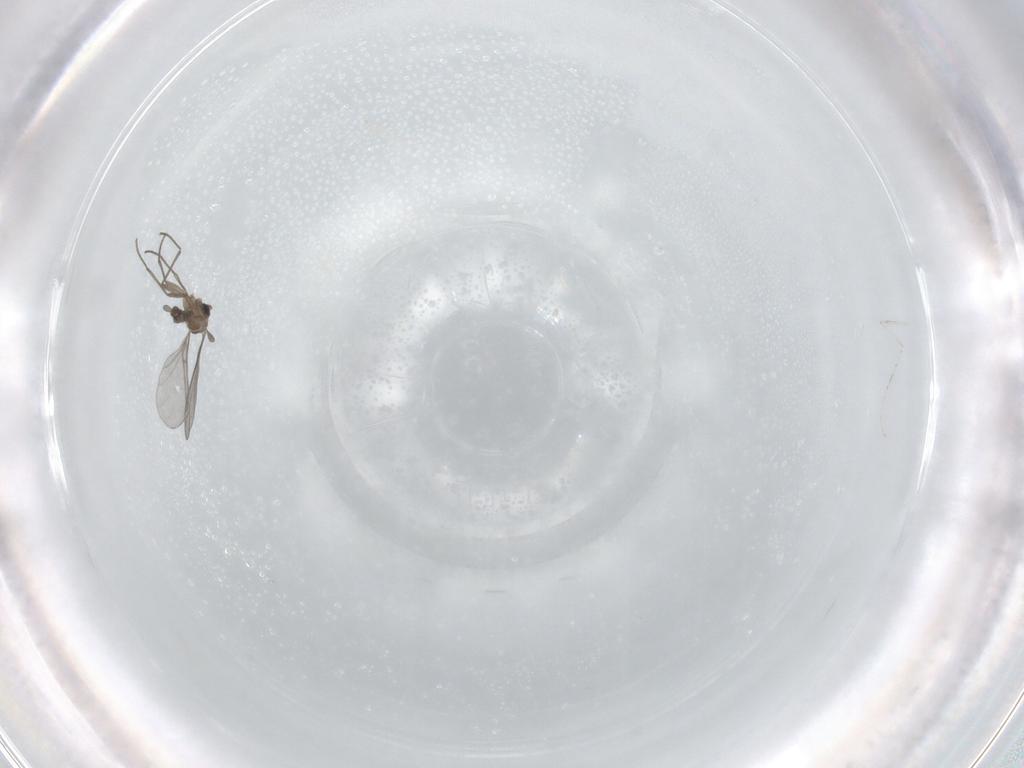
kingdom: Animalia
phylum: Arthropoda
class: Insecta
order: Diptera
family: Sciaridae
